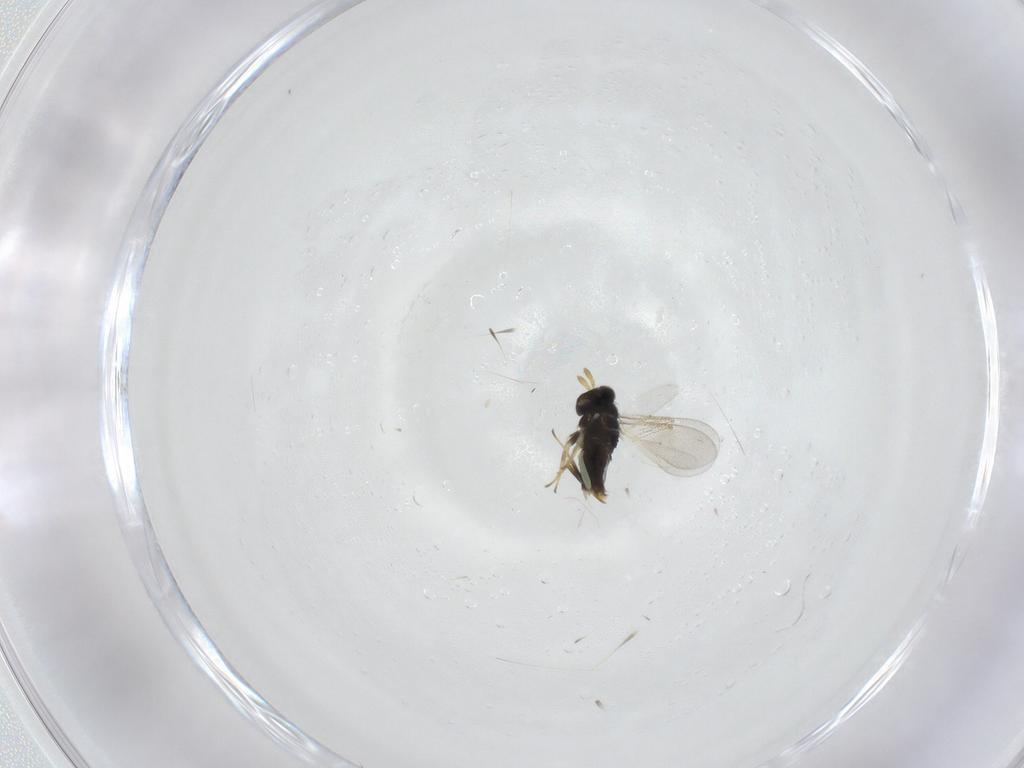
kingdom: Animalia
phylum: Arthropoda
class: Insecta
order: Hymenoptera
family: Aphelinidae
